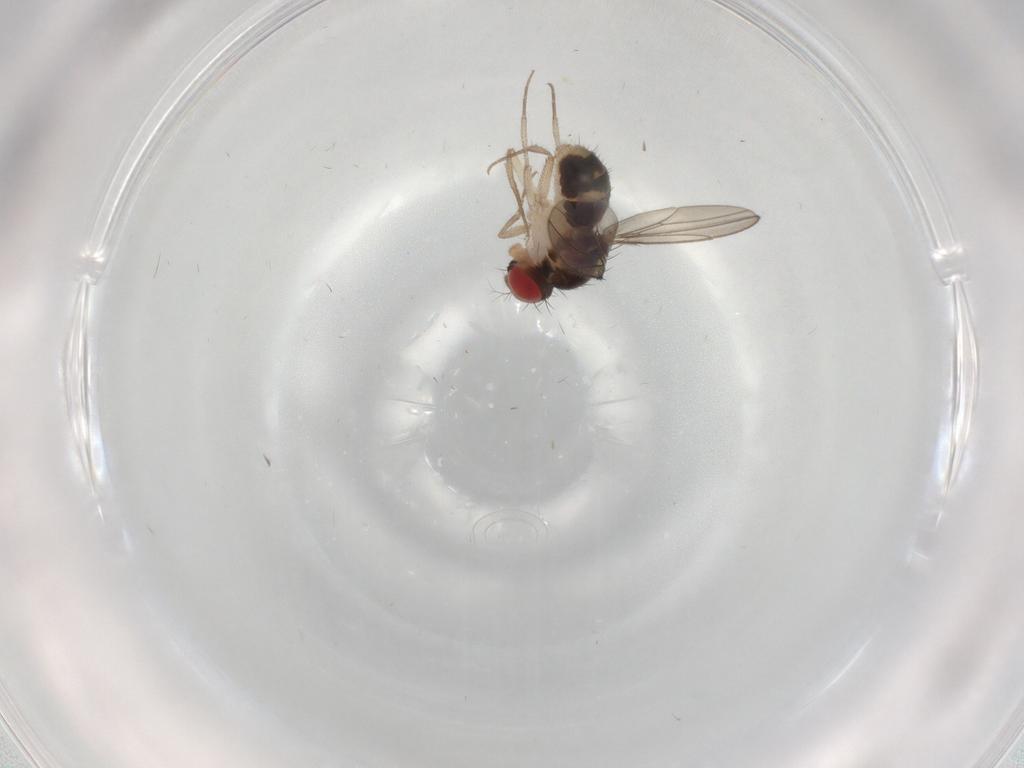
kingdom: Animalia
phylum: Arthropoda
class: Insecta
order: Diptera
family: Drosophilidae
